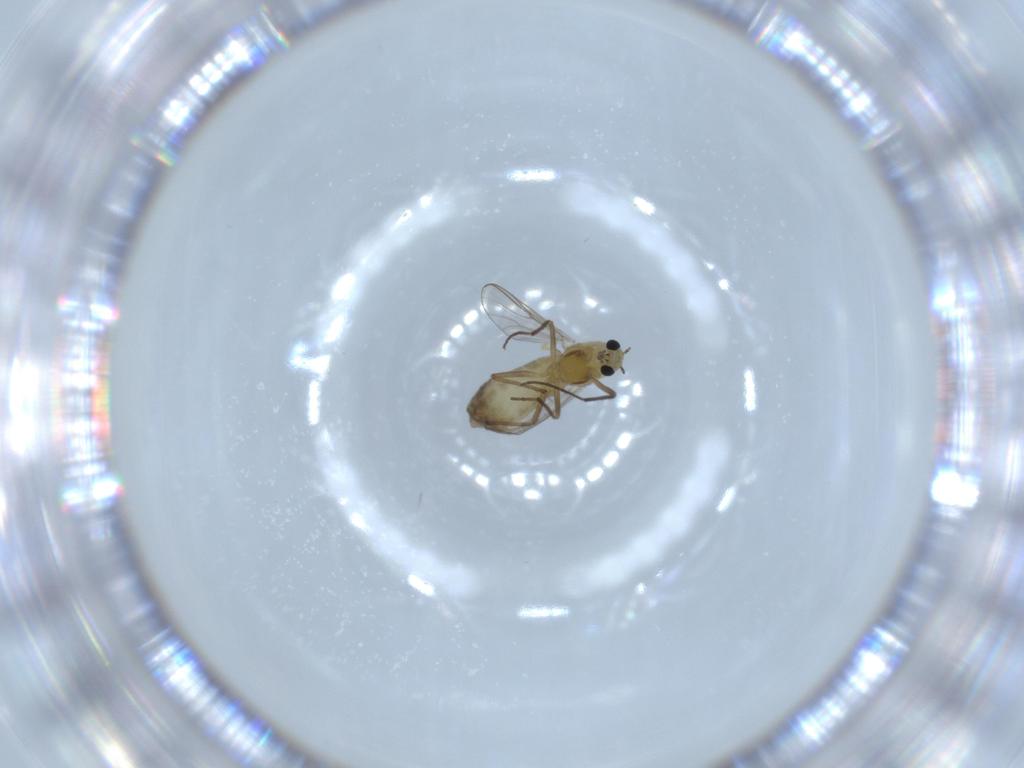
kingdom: Animalia
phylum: Arthropoda
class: Insecta
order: Diptera
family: Chironomidae
